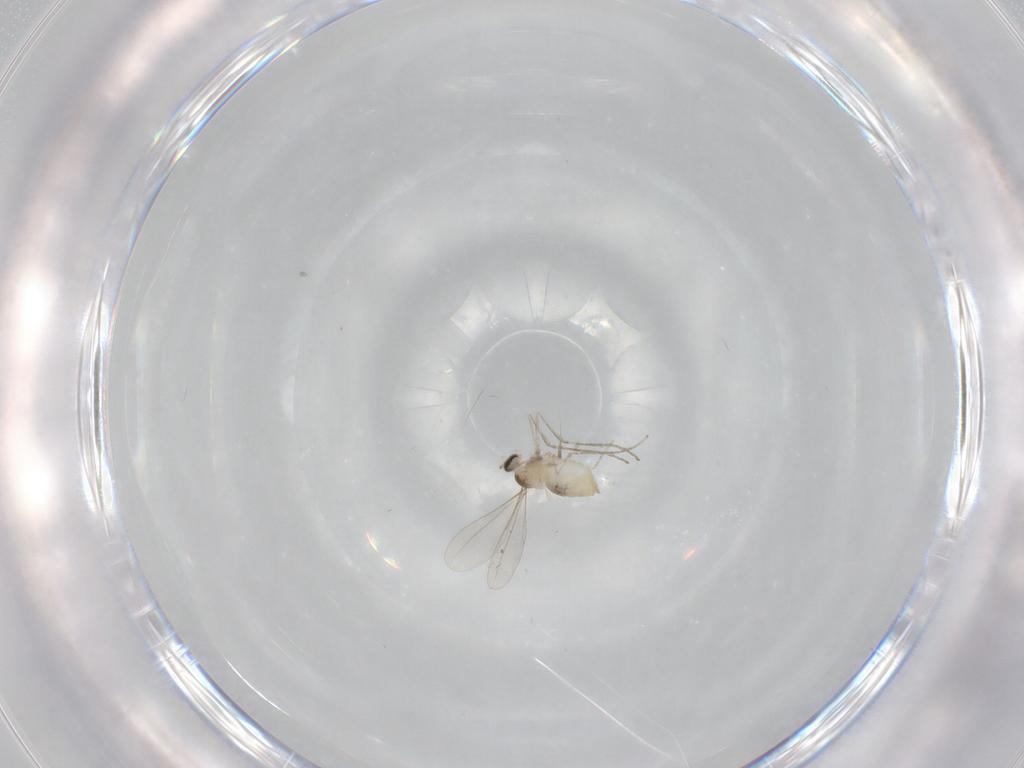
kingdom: Animalia
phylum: Arthropoda
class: Insecta
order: Diptera
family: Cecidomyiidae
